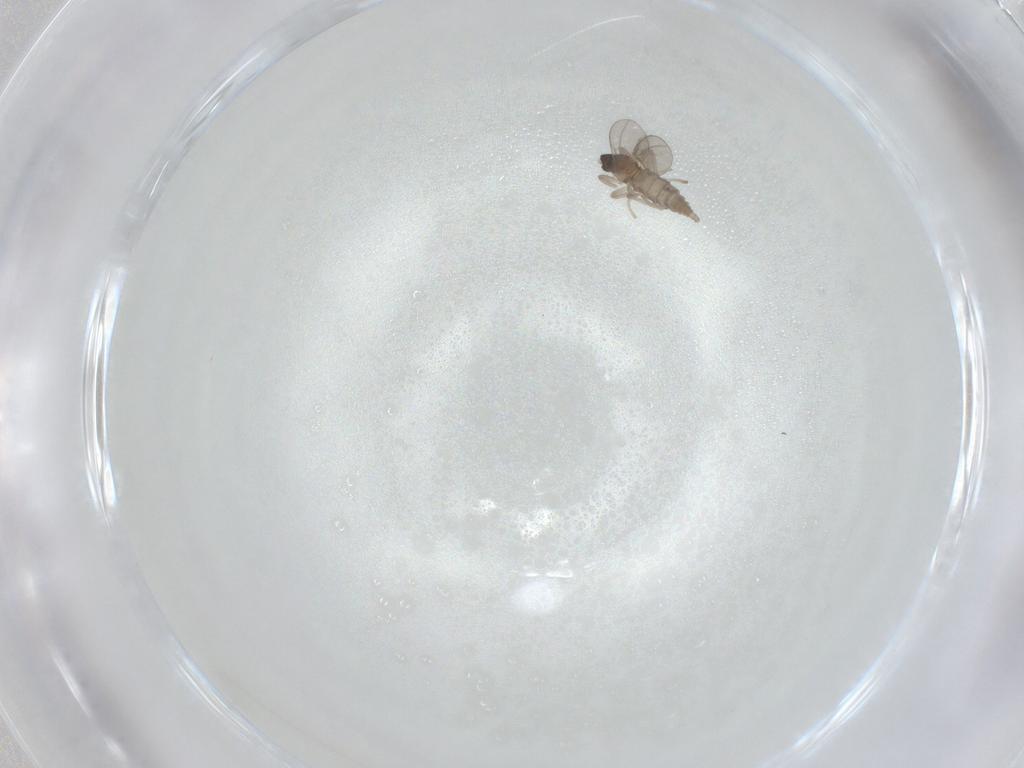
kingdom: Animalia
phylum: Arthropoda
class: Insecta
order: Diptera
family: Chironomidae
